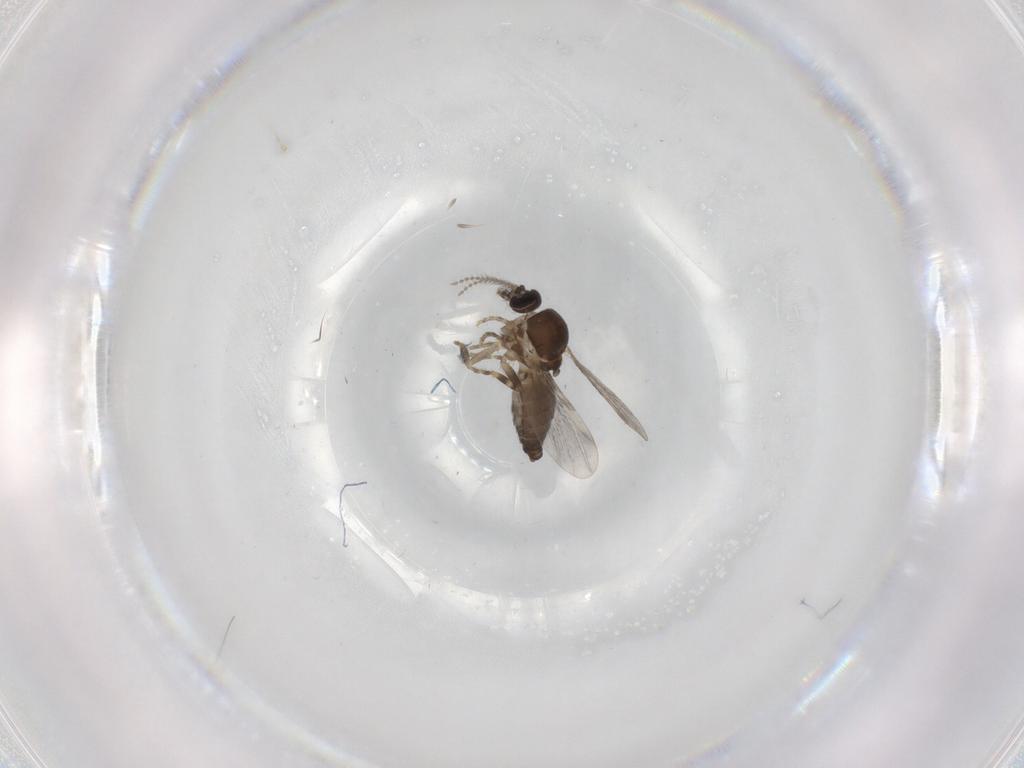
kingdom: Animalia
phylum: Arthropoda
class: Insecta
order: Diptera
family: Ceratopogonidae
